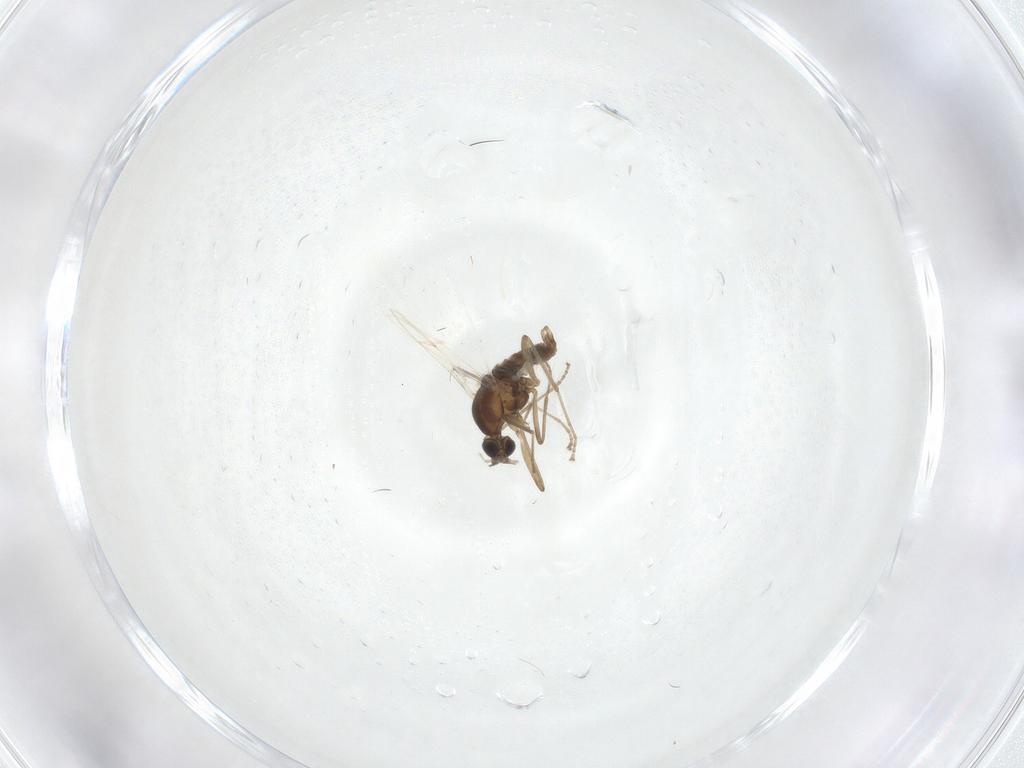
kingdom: Animalia
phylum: Arthropoda
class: Insecta
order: Diptera
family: Cecidomyiidae
